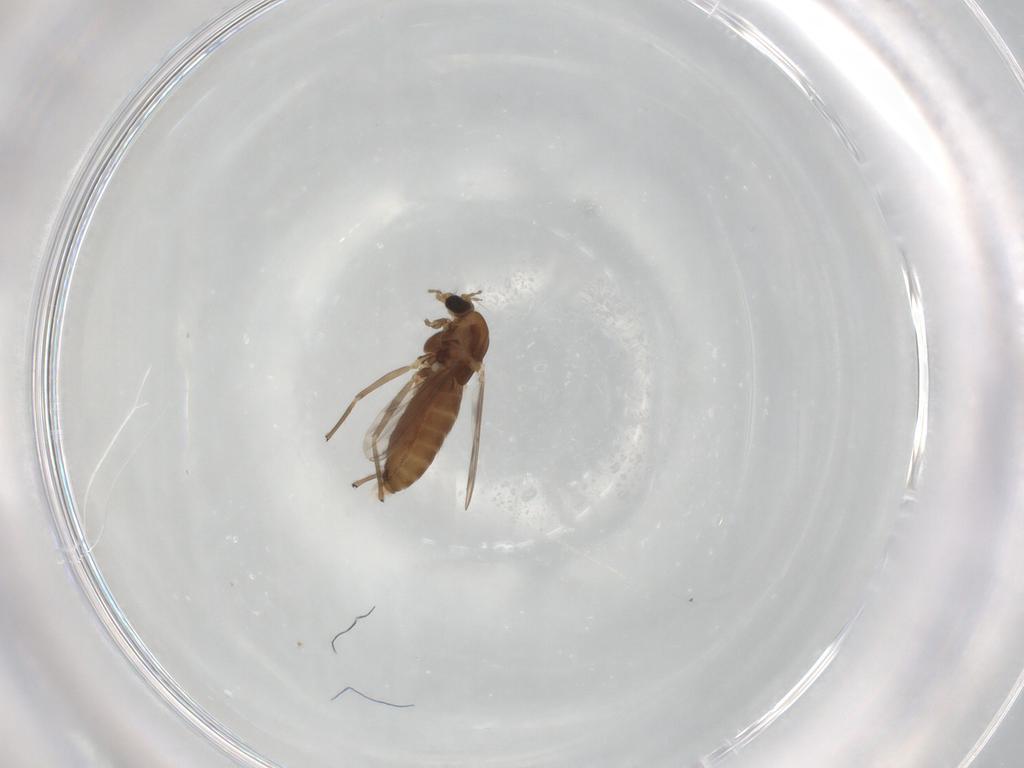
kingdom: Animalia
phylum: Arthropoda
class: Insecta
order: Diptera
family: Chironomidae
